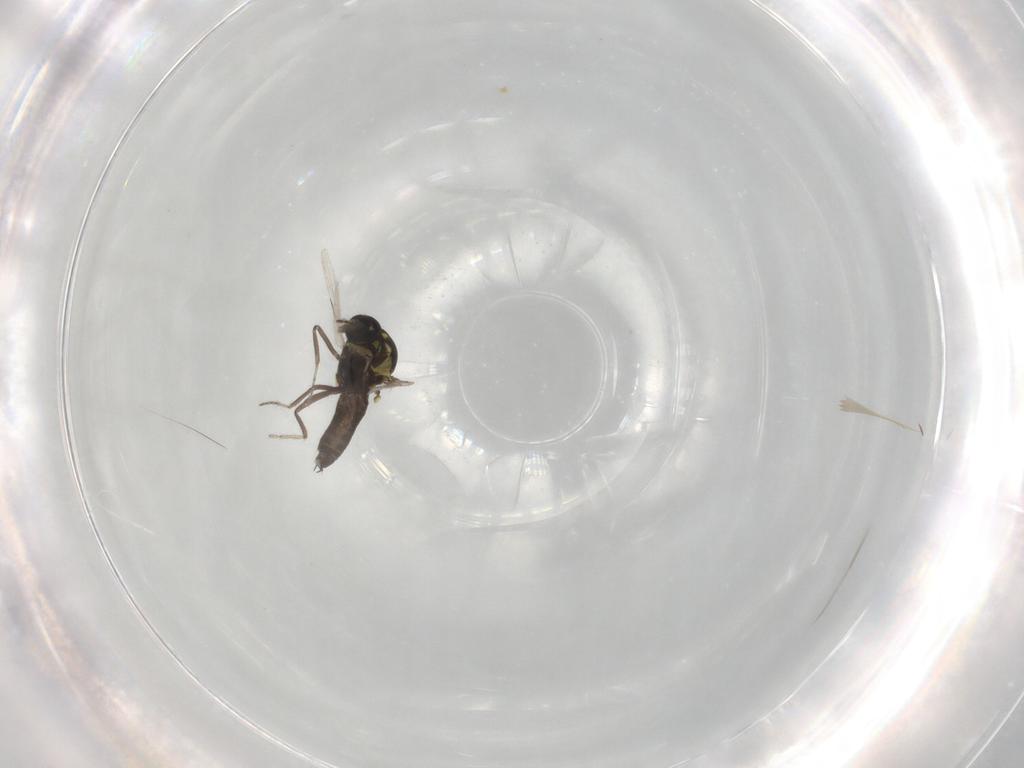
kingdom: Animalia
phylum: Arthropoda
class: Insecta
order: Diptera
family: Ceratopogonidae
